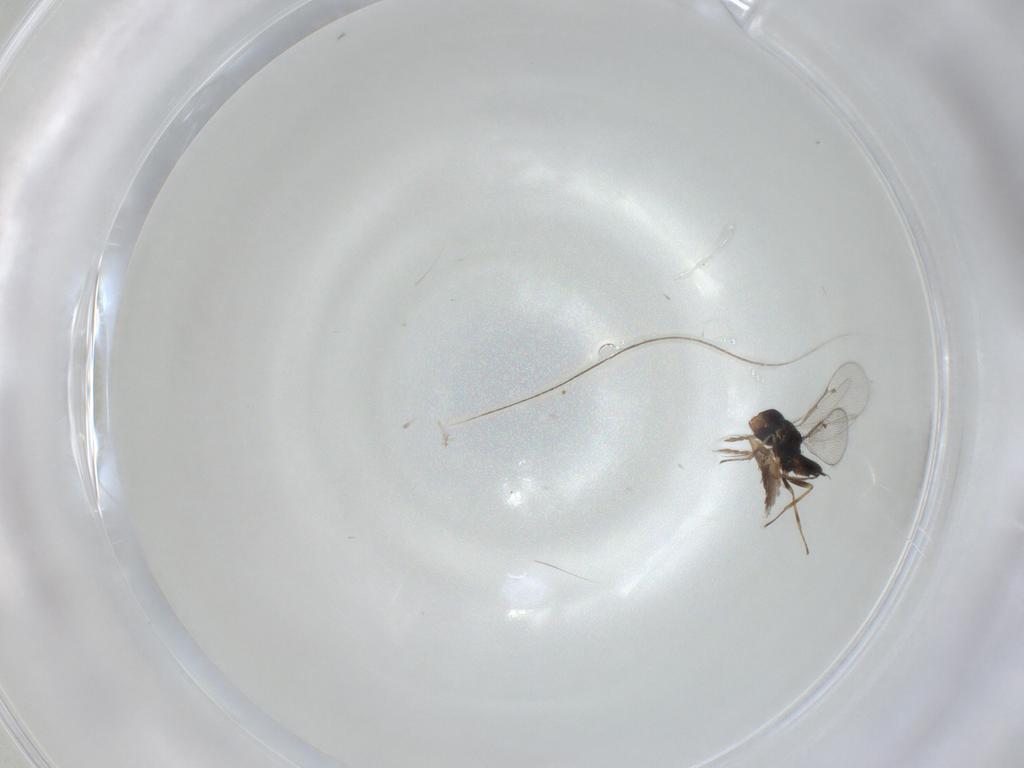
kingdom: Animalia
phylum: Arthropoda
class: Insecta
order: Hymenoptera
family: Eulophidae
